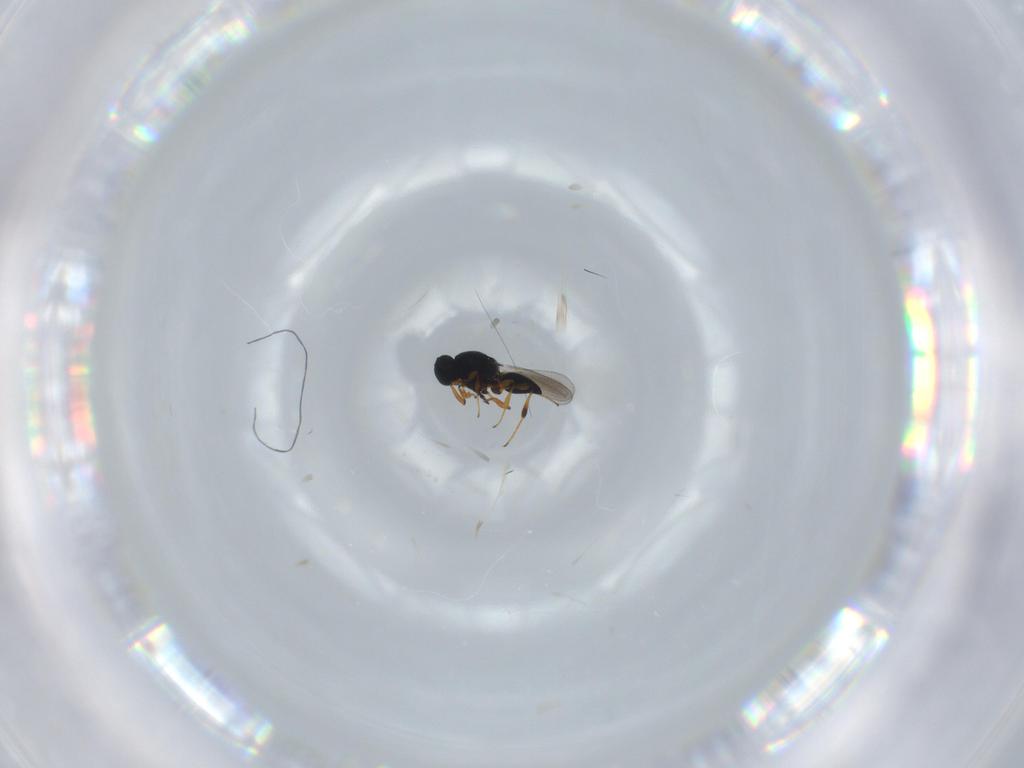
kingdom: Animalia
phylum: Arthropoda
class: Insecta
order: Hymenoptera
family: Platygastridae
